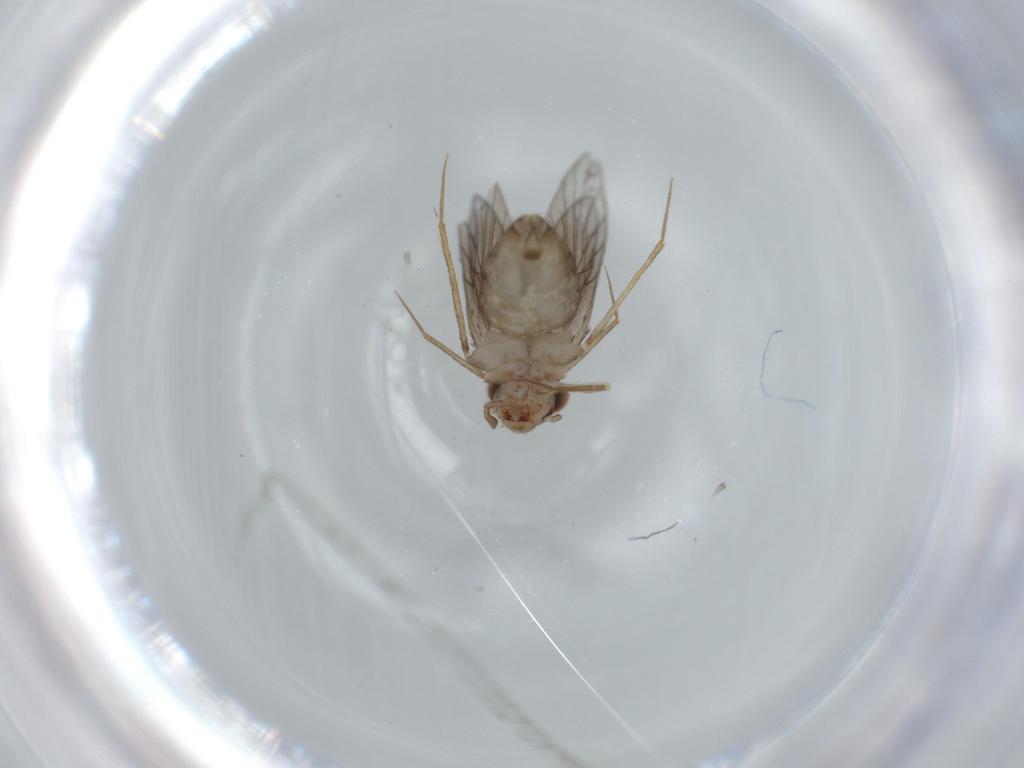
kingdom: Animalia
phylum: Arthropoda
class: Insecta
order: Psocodea
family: Lepidopsocidae
